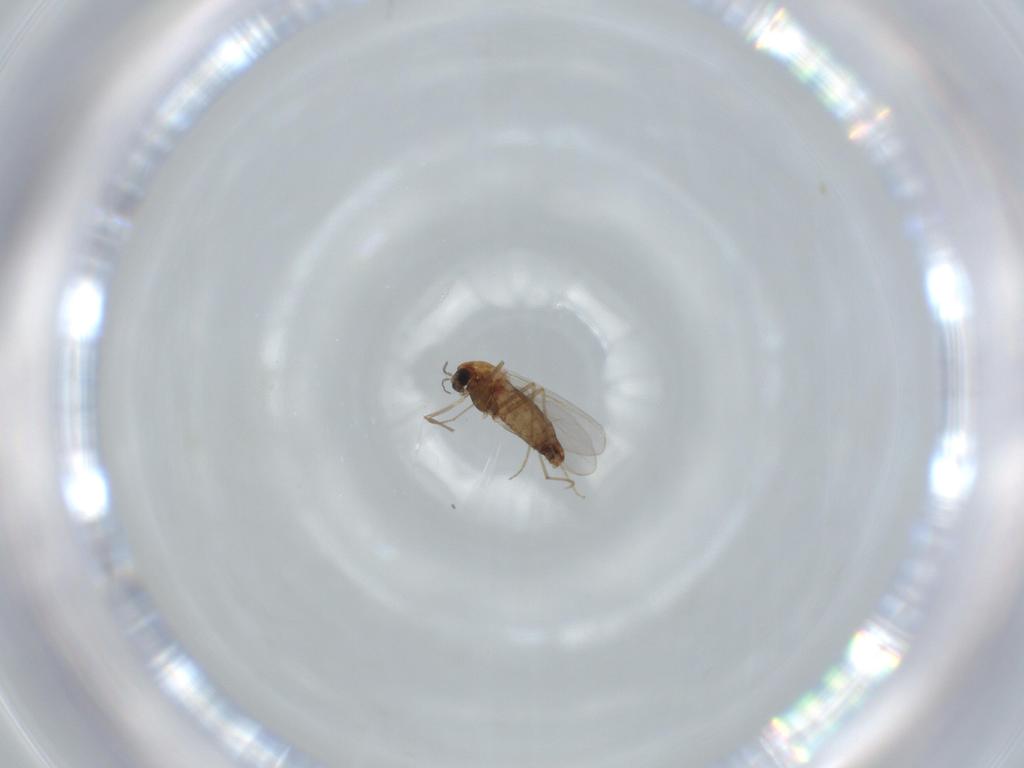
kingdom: Animalia
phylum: Arthropoda
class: Insecta
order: Diptera
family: Chironomidae
